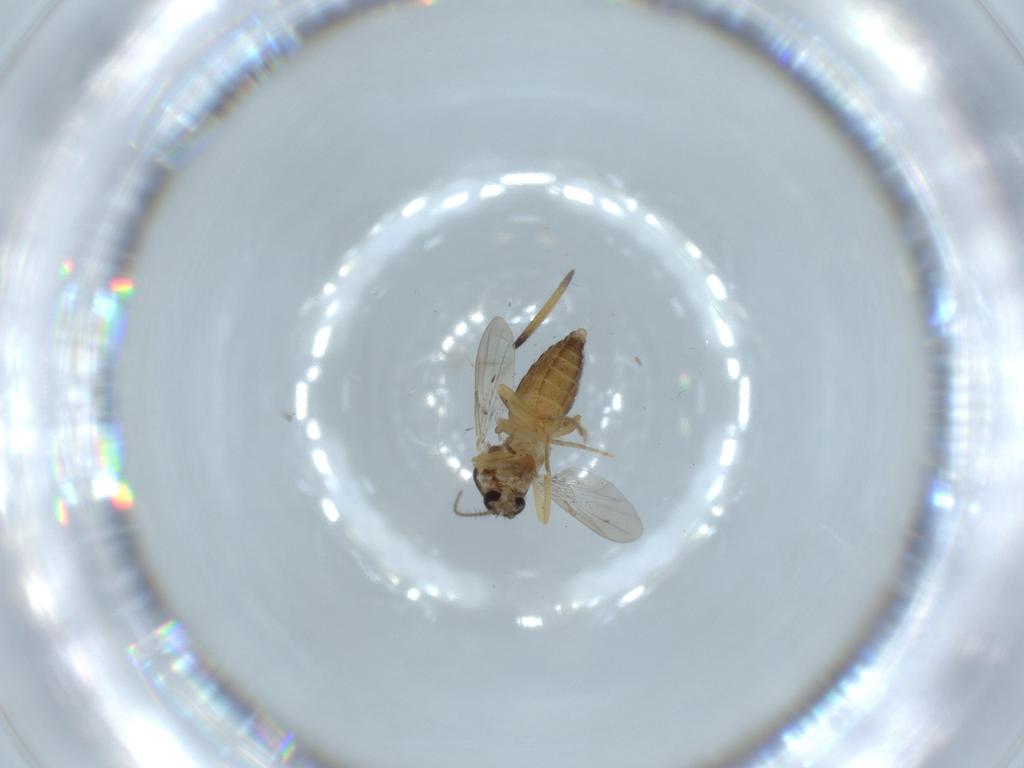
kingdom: Animalia
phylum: Arthropoda
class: Insecta
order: Diptera
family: Ceratopogonidae
